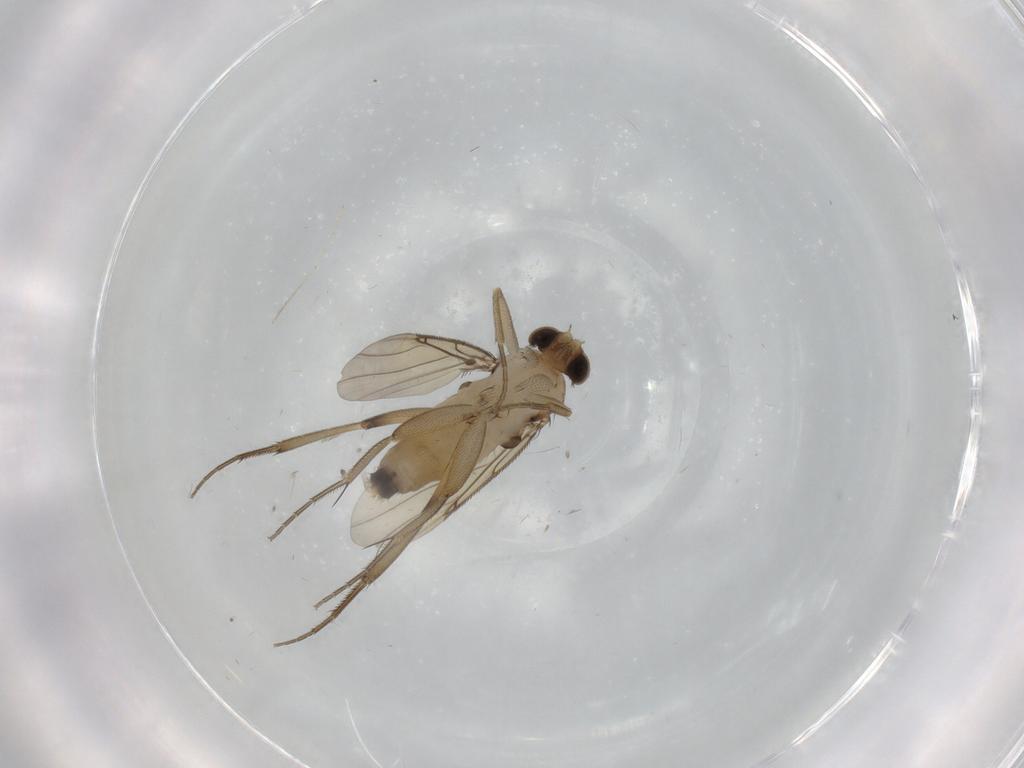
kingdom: Animalia
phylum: Arthropoda
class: Insecta
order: Diptera
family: Phoridae
